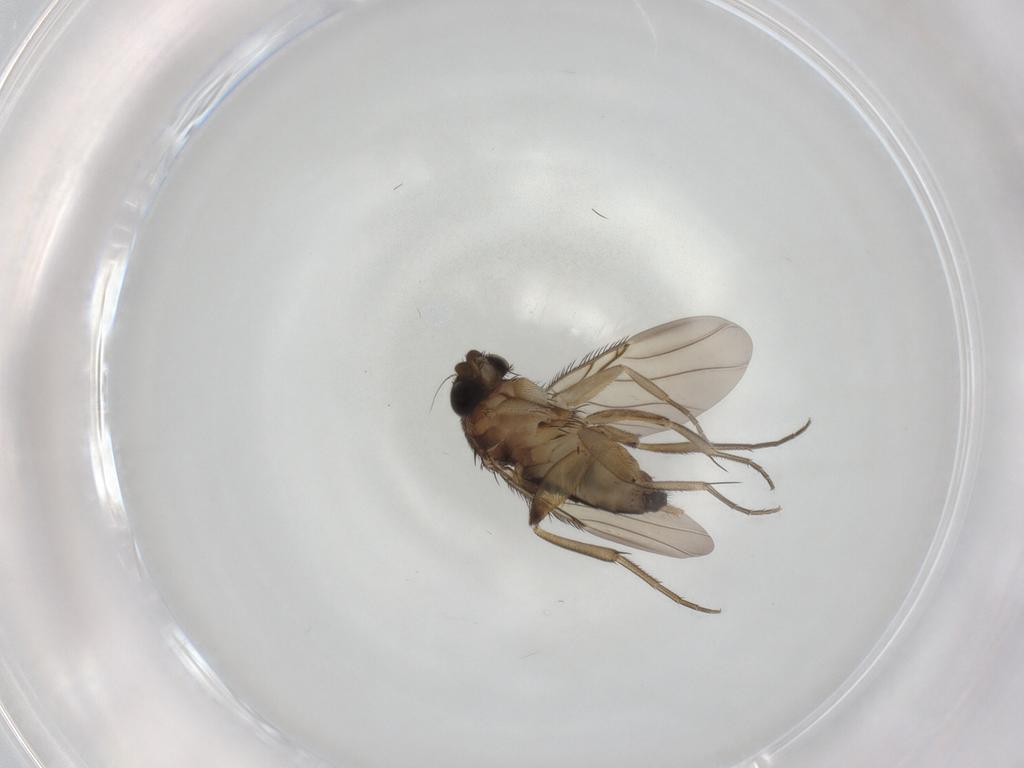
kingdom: Animalia
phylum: Arthropoda
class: Insecta
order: Diptera
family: Phoridae
